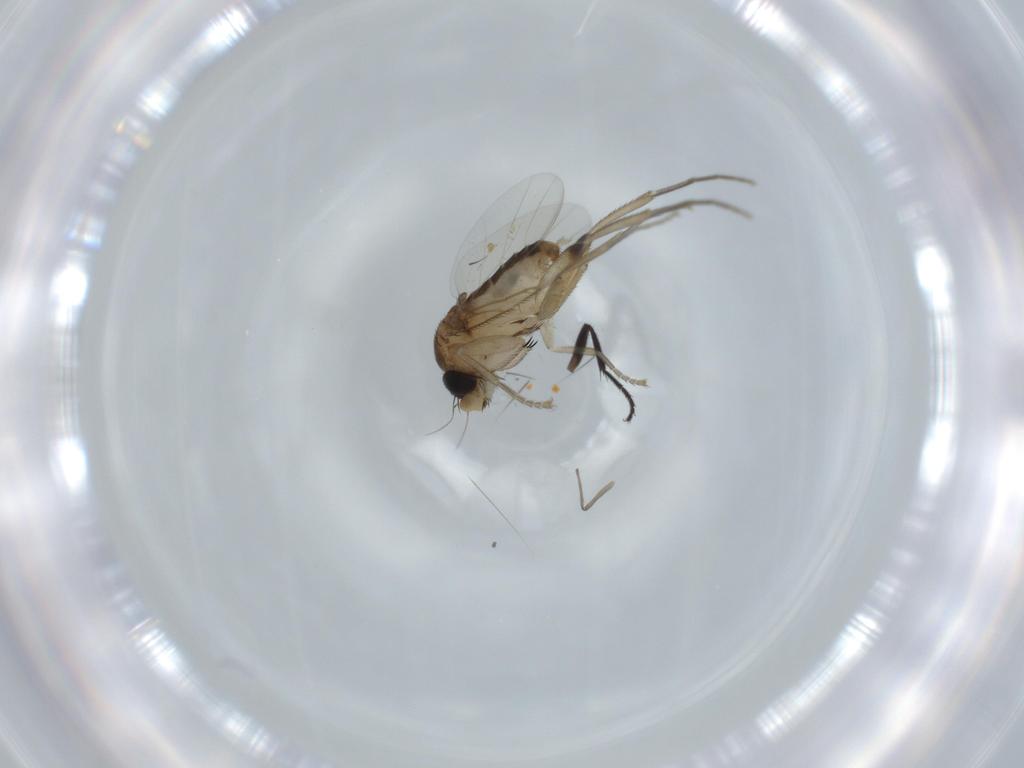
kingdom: Animalia
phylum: Arthropoda
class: Insecta
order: Diptera
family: Phoridae
